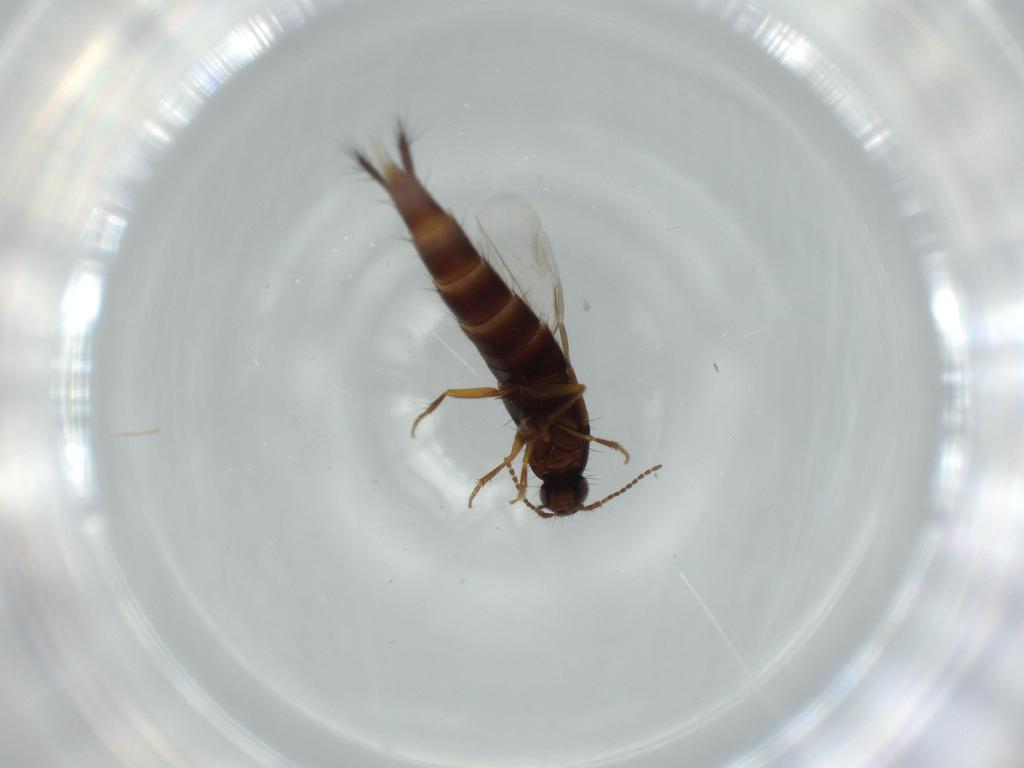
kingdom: Animalia
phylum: Arthropoda
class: Insecta
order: Coleoptera
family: Staphylinidae
